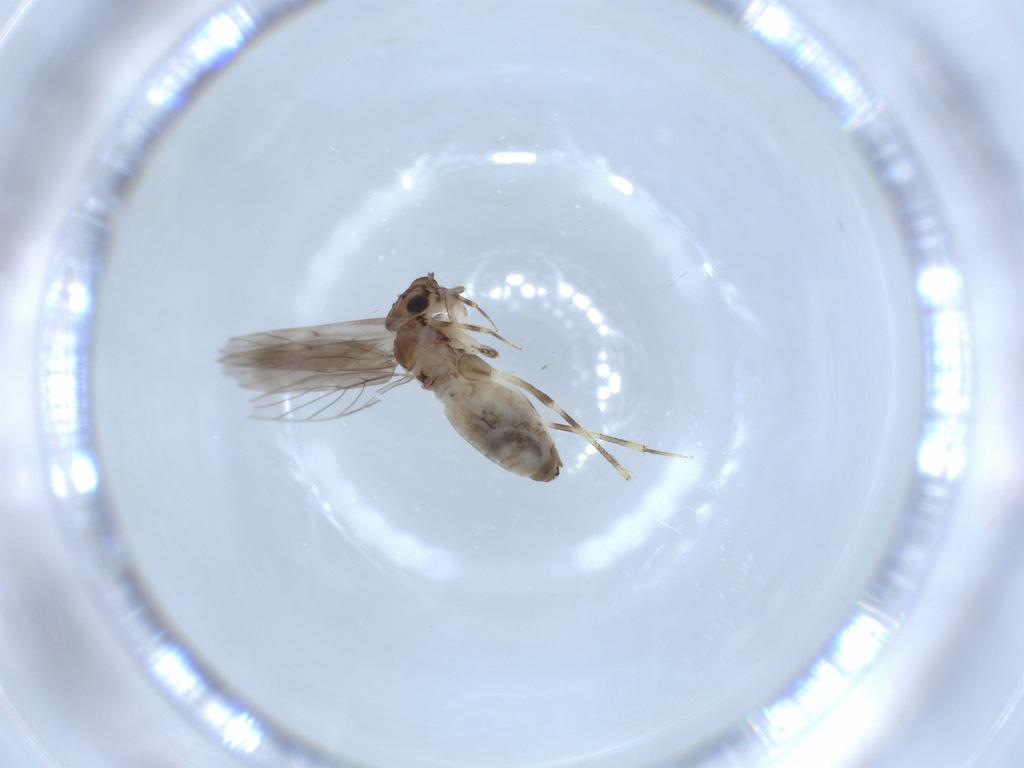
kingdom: Animalia
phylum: Arthropoda
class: Insecta
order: Psocodea
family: Lepidopsocidae
